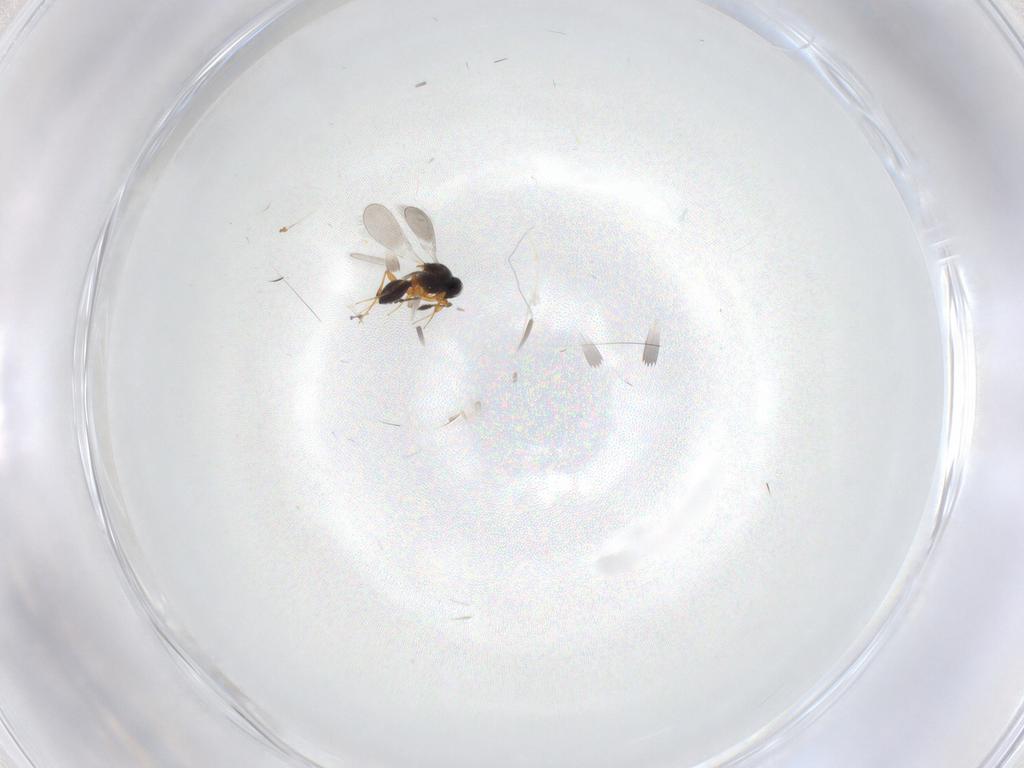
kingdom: Animalia
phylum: Arthropoda
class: Insecta
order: Hymenoptera
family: Platygastridae
